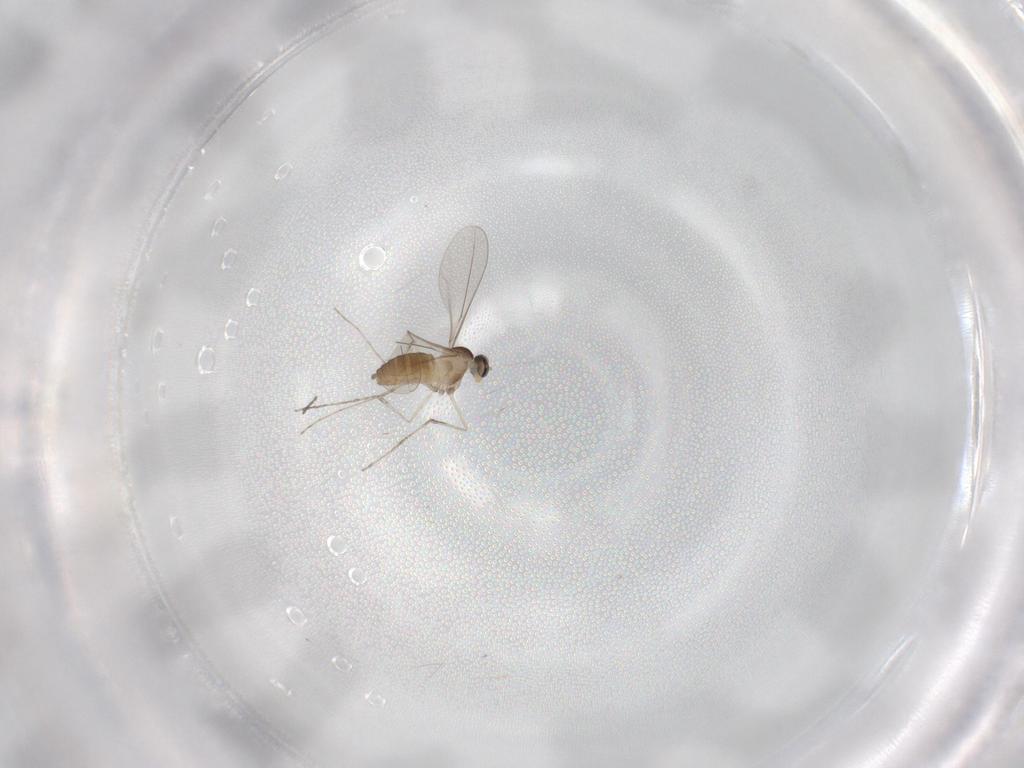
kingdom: Animalia
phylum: Arthropoda
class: Insecta
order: Diptera
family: Cecidomyiidae
